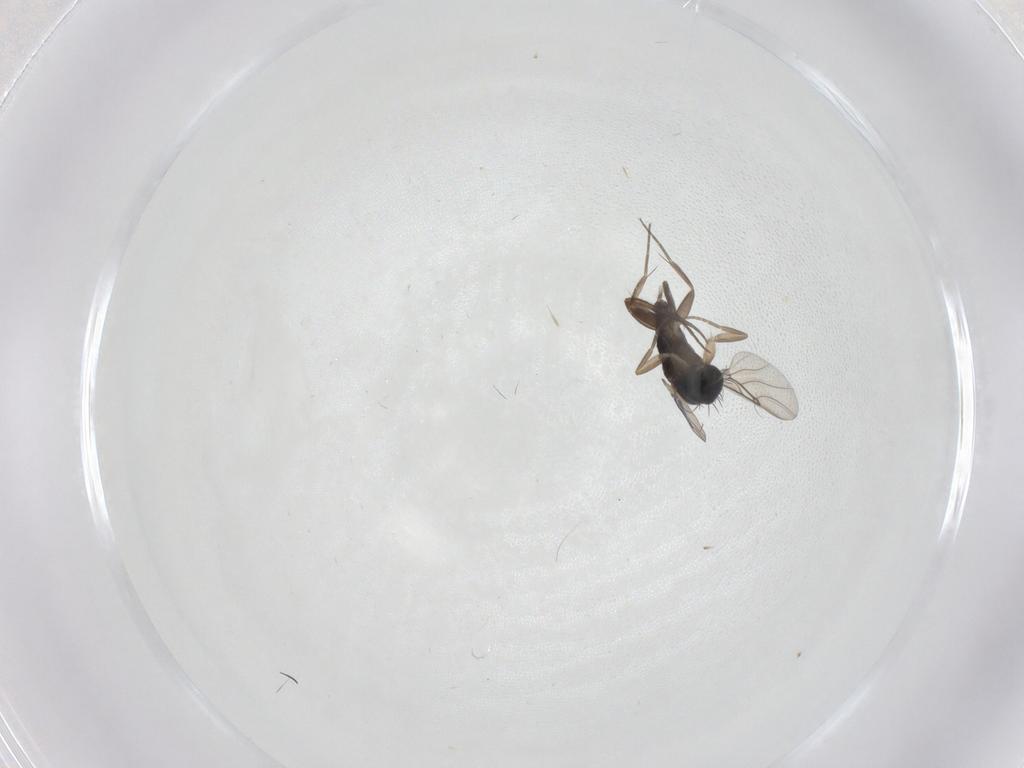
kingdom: Animalia
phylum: Arthropoda
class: Insecta
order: Diptera
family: Phoridae
